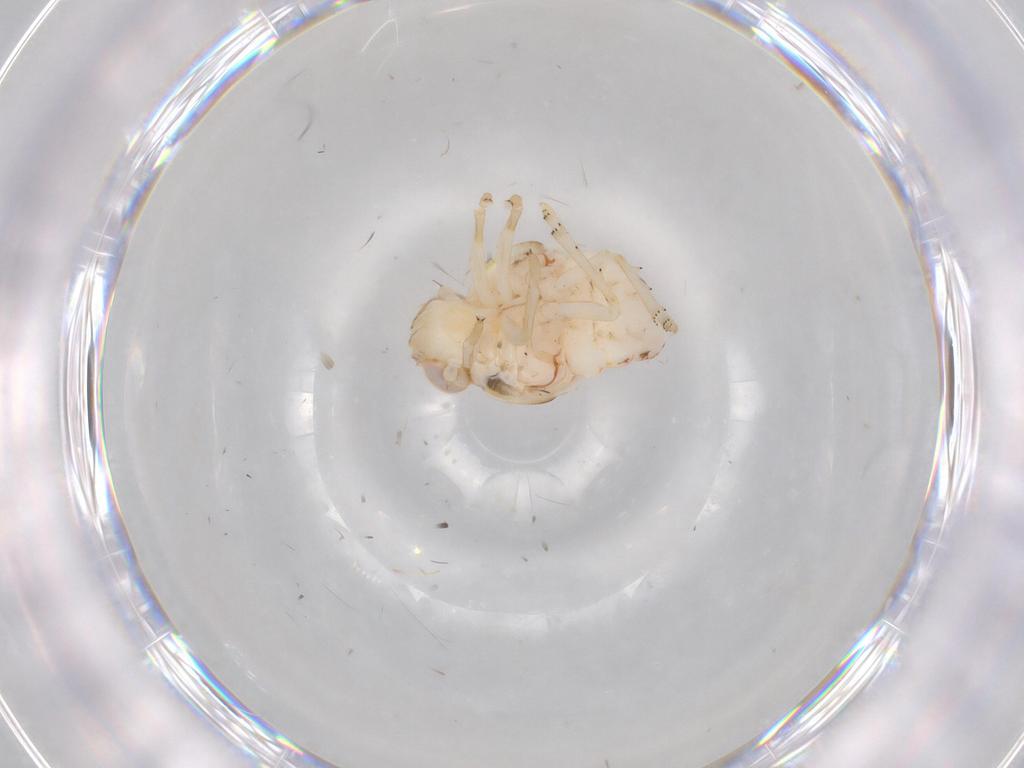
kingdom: Animalia
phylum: Arthropoda
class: Insecta
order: Hemiptera
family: Nogodinidae
